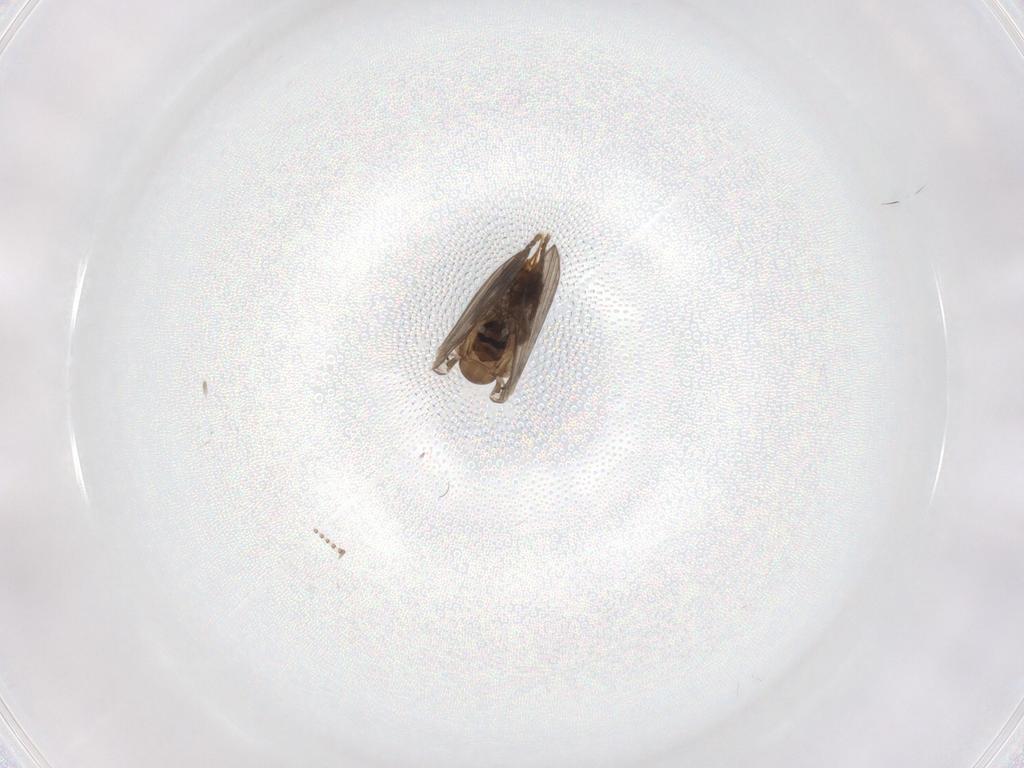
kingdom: Animalia
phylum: Arthropoda
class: Insecta
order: Diptera
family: Psychodidae
